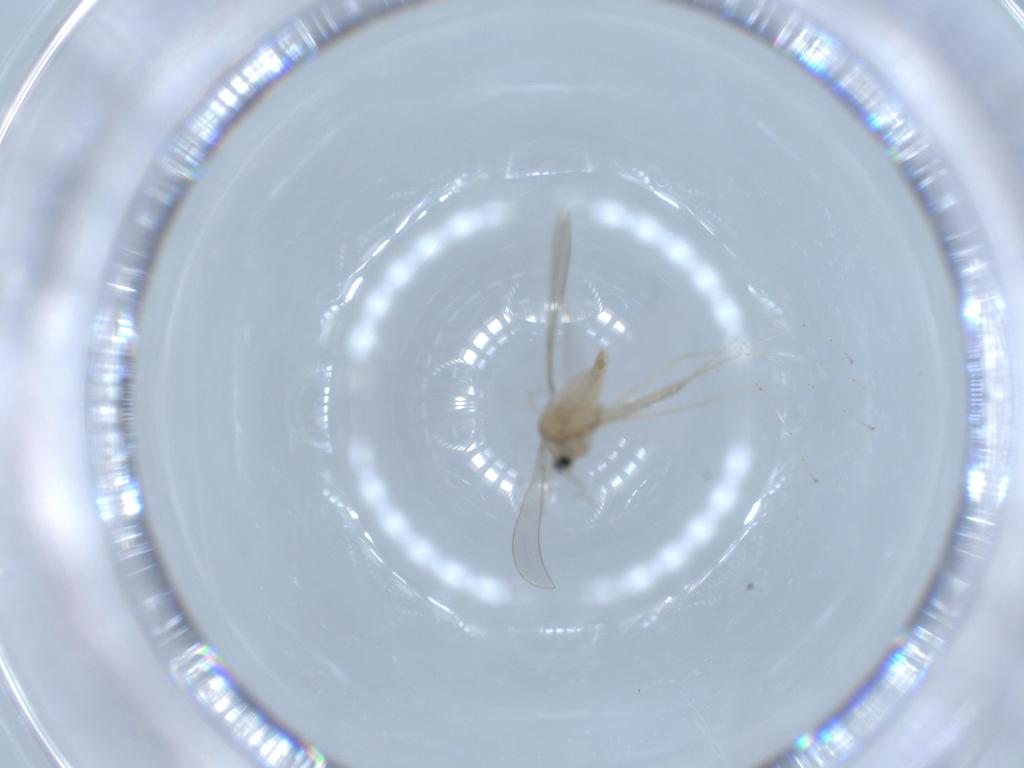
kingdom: Animalia
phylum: Arthropoda
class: Insecta
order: Diptera
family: Cecidomyiidae
